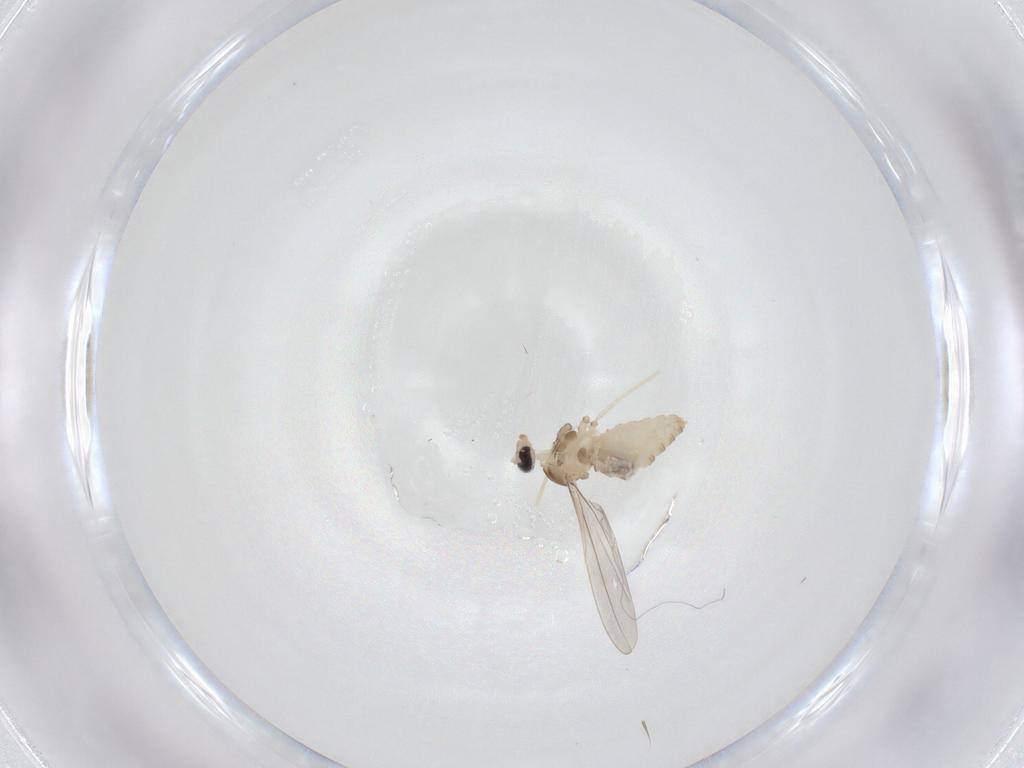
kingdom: Animalia
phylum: Arthropoda
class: Insecta
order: Diptera
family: Cecidomyiidae
